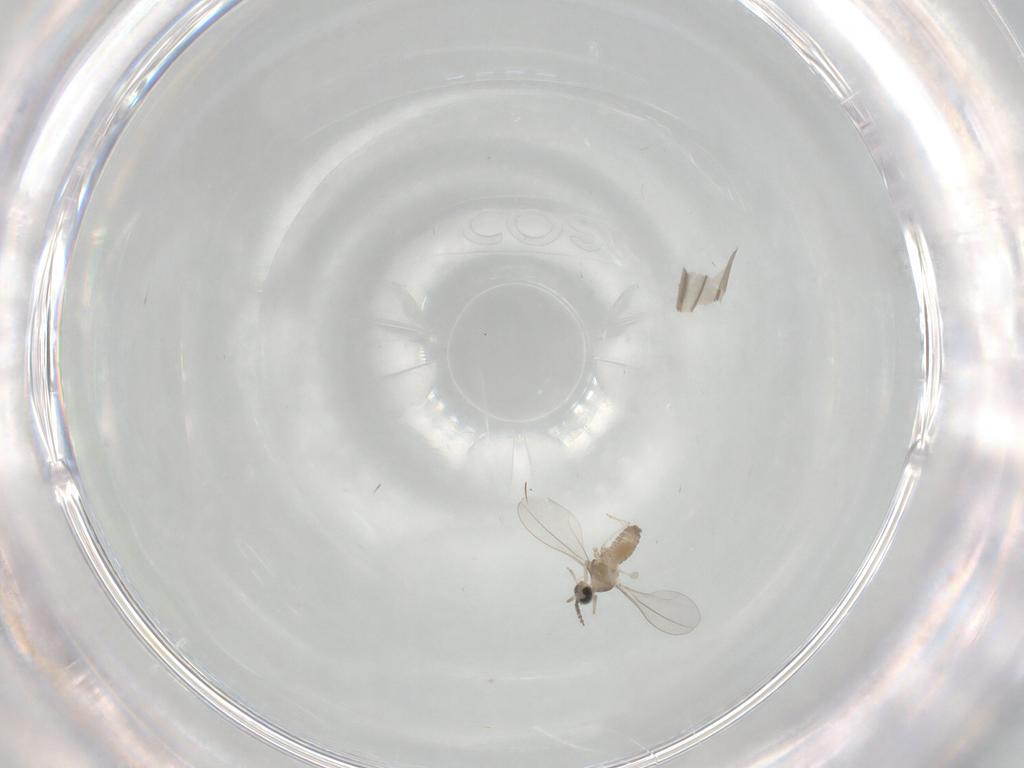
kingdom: Animalia
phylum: Arthropoda
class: Insecta
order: Diptera
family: Cecidomyiidae
